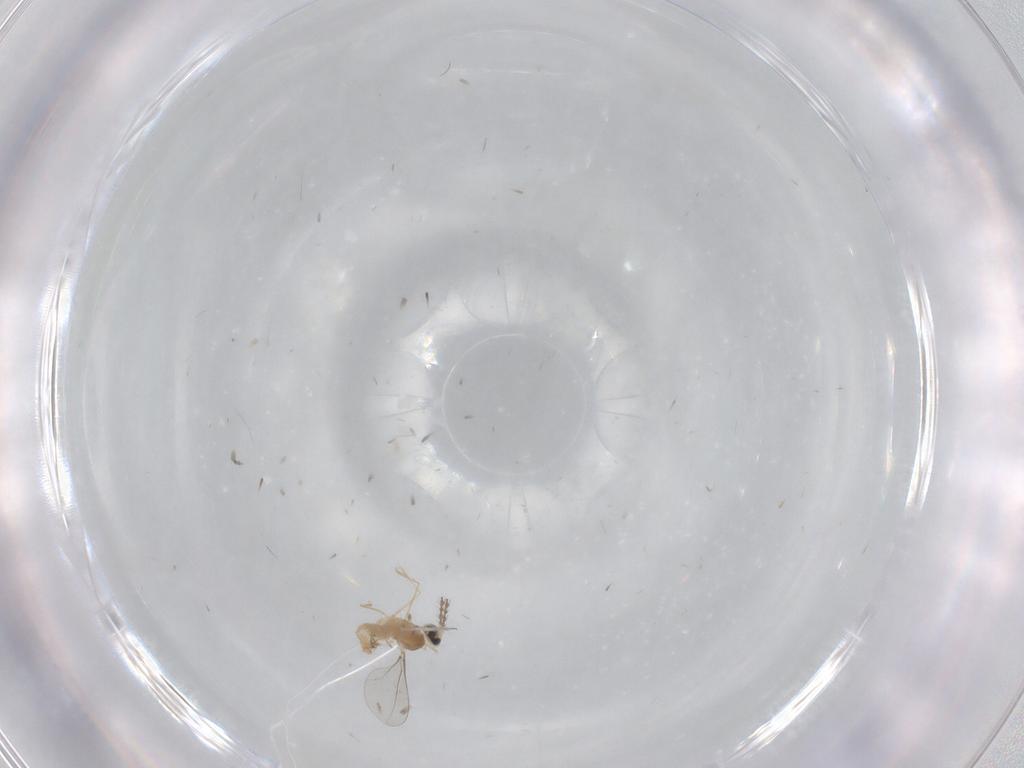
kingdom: Animalia
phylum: Arthropoda
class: Insecta
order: Diptera
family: Cecidomyiidae
